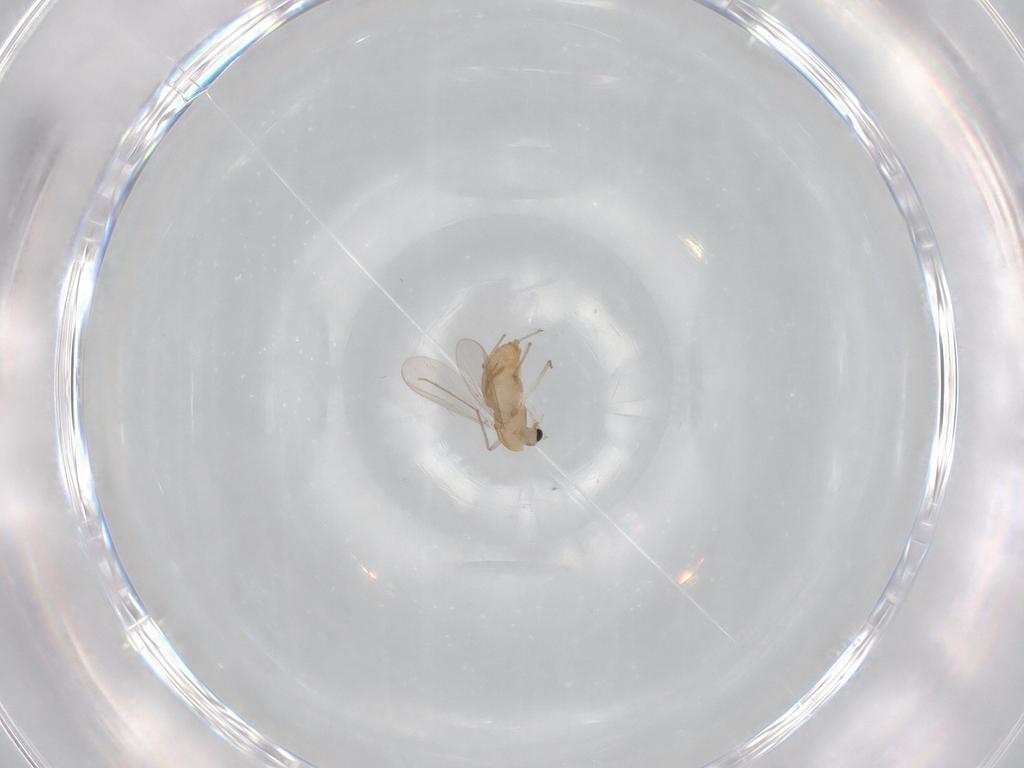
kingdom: Animalia
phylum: Arthropoda
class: Insecta
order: Diptera
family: Chironomidae
